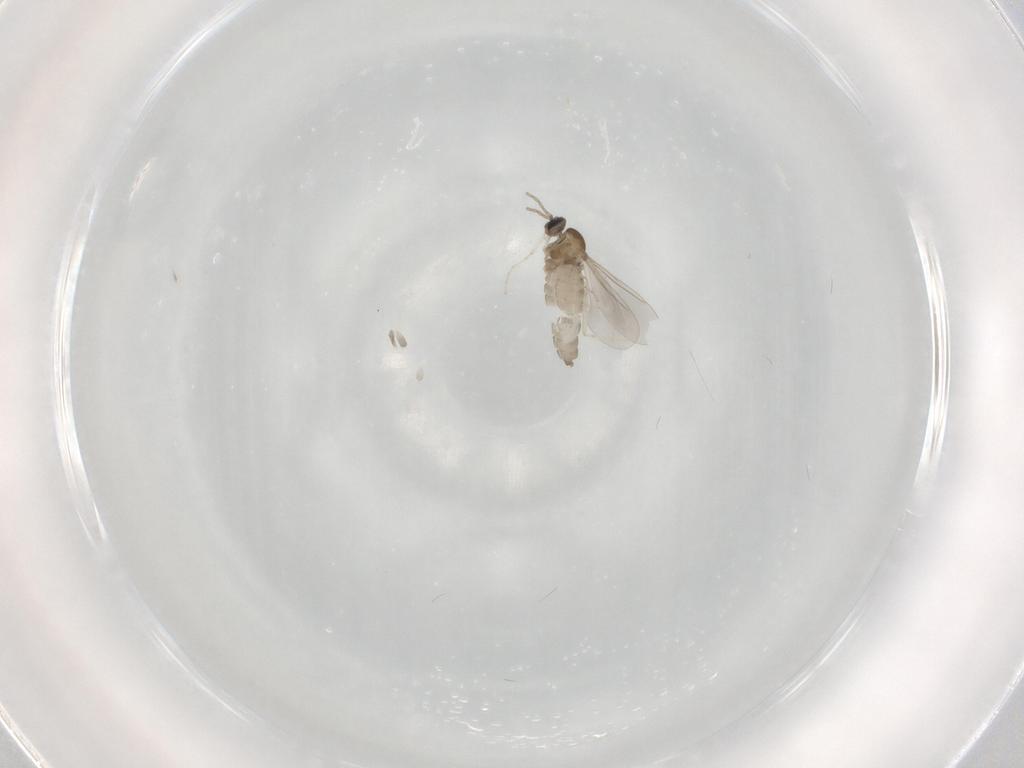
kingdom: Animalia
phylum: Arthropoda
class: Insecta
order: Diptera
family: Cecidomyiidae
